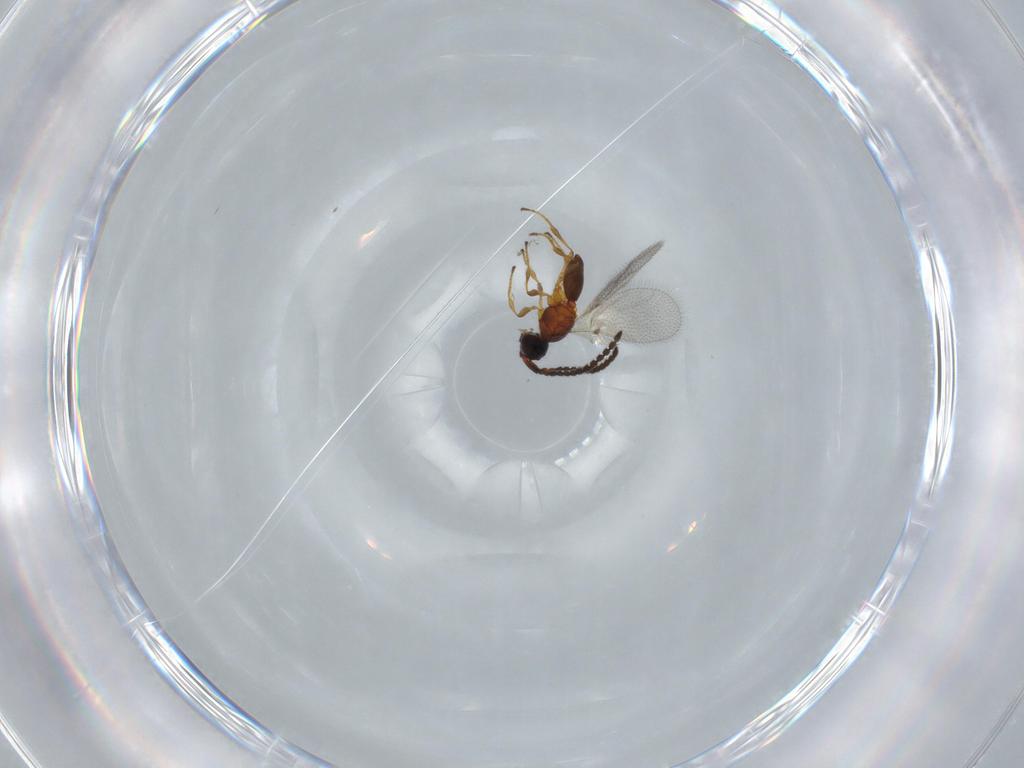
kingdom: Animalia
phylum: Arthropoda
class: Insecta
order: Hymenoptera
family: Diapriidae
